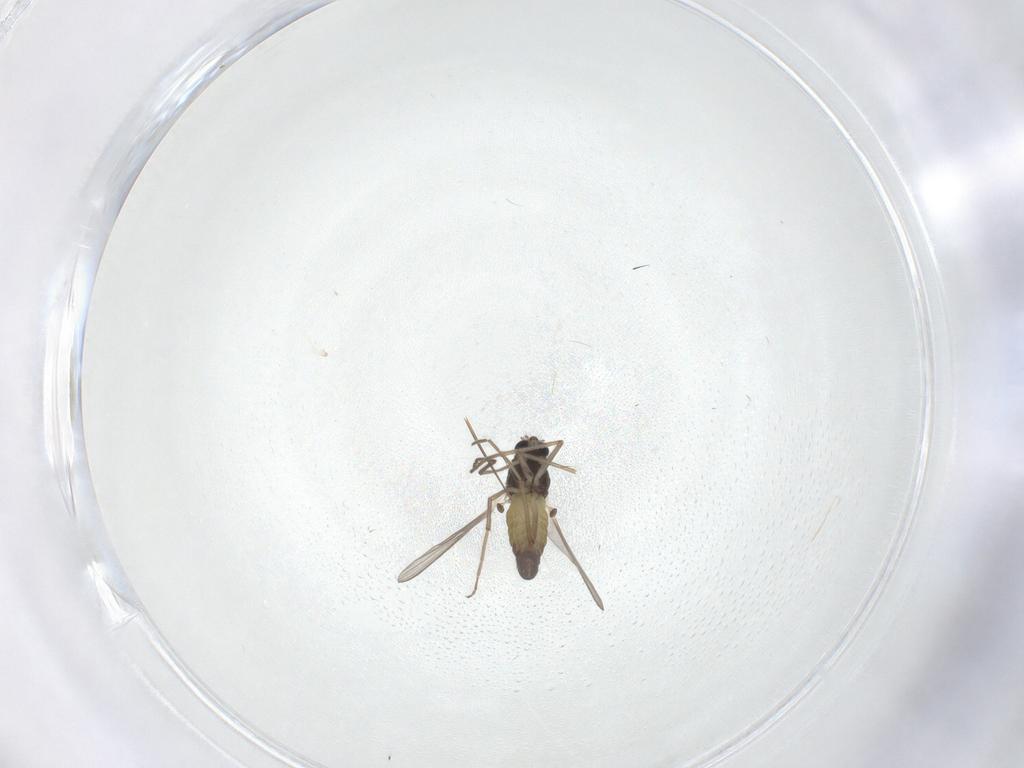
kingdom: Animalia
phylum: Arthropoda
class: Insecta
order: Diptera
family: Chironomidae
